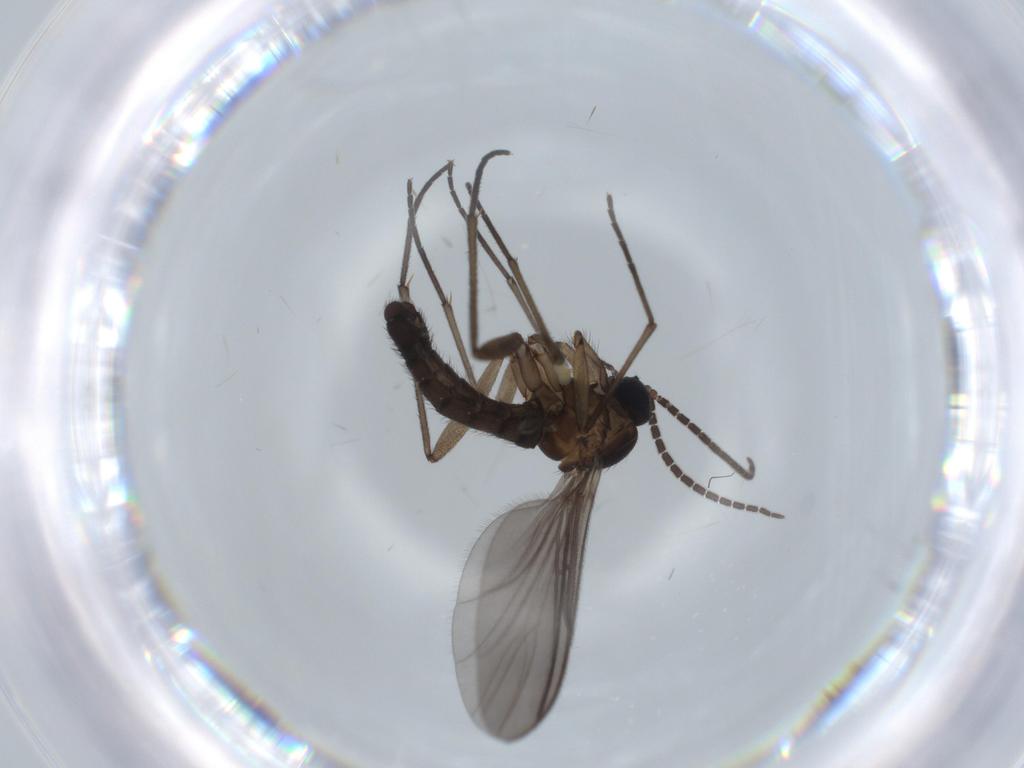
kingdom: Animalia
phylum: Arthropoda
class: Insecta
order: Diptera
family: Sciaridae
